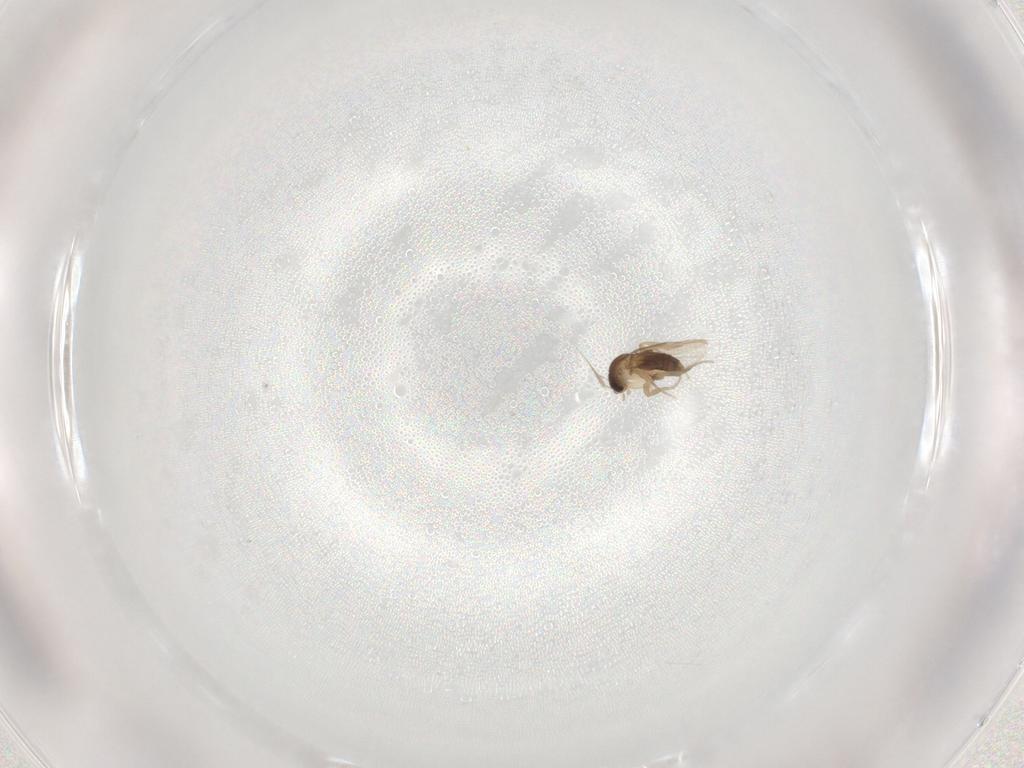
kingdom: Animalia
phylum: Arthropoda
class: Insecta
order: Diptera
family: Phoridae
